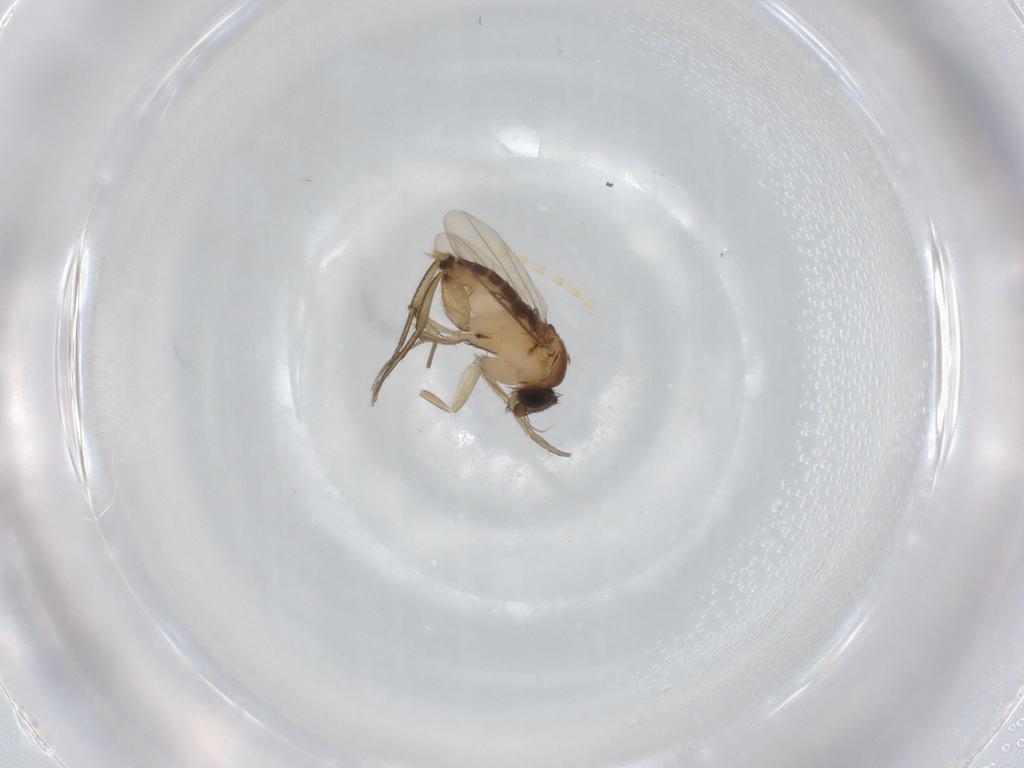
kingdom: Animalia
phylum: Arthropoda
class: Insecta
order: Diptera
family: Phoridae
